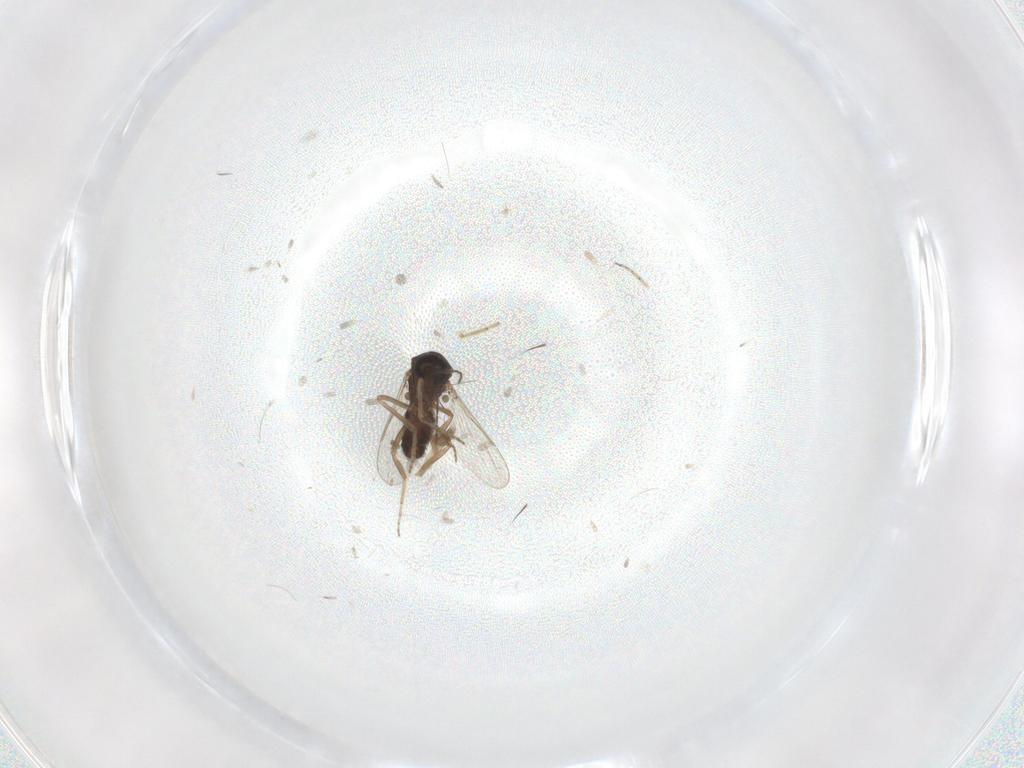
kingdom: Animalia
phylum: Arthropoda
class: Insecta
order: Diptera
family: Ceratopogonidae
